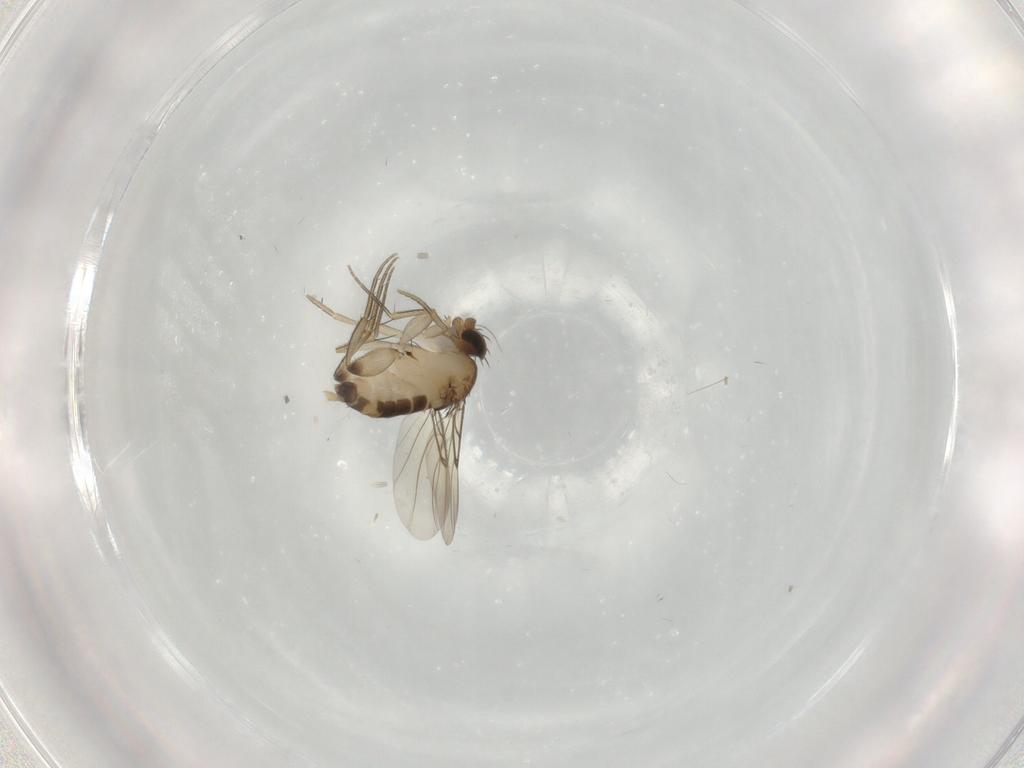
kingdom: Animalia
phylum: Arthropoda
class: Insecta
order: Diptera
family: Phoridae
